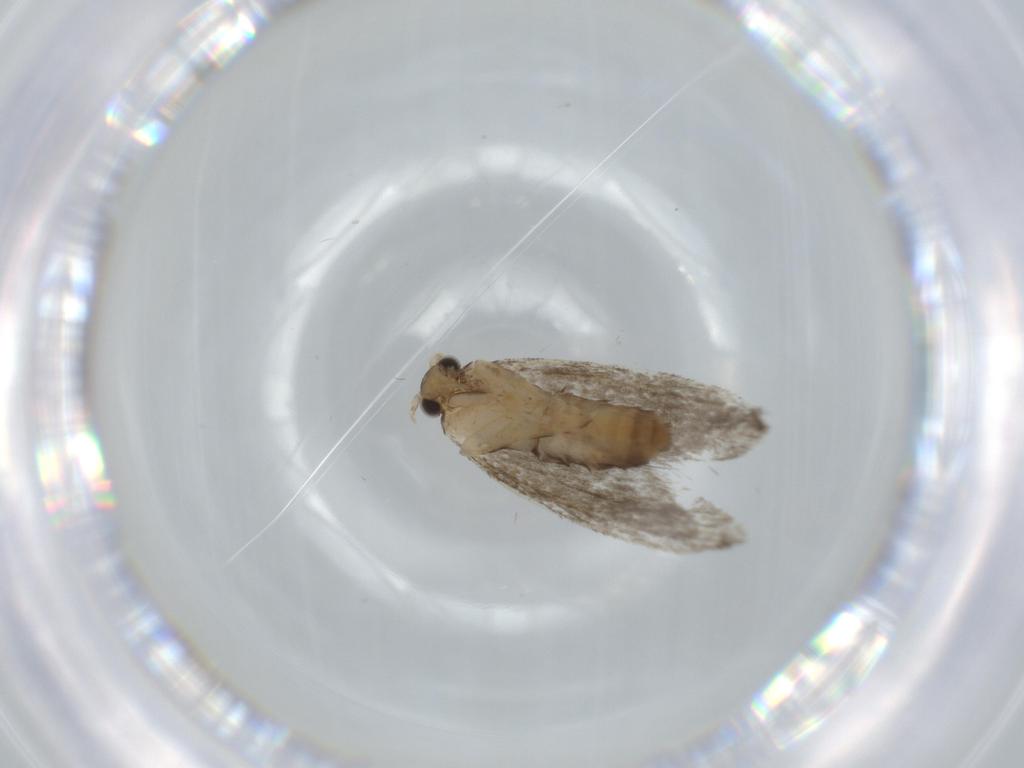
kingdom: Animalia
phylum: Arthropoda
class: Insecta
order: Lepidoptera
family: Tineidae
